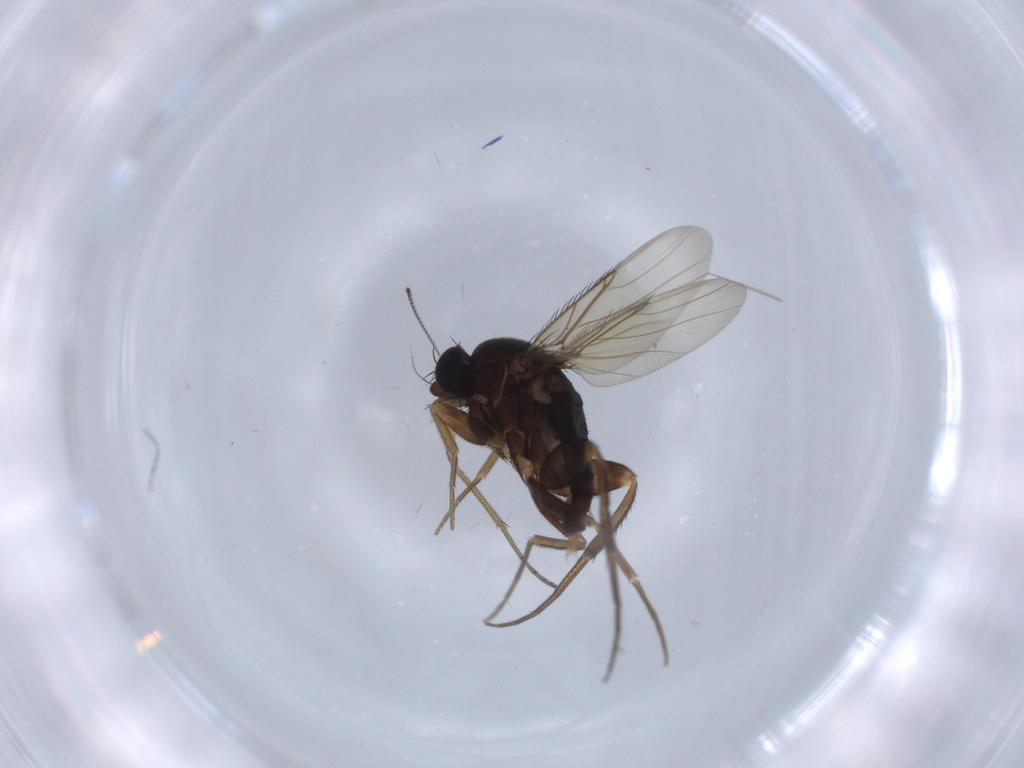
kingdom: Animalia
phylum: Arthropoda
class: Insecta
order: Diptera
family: Phoridae
